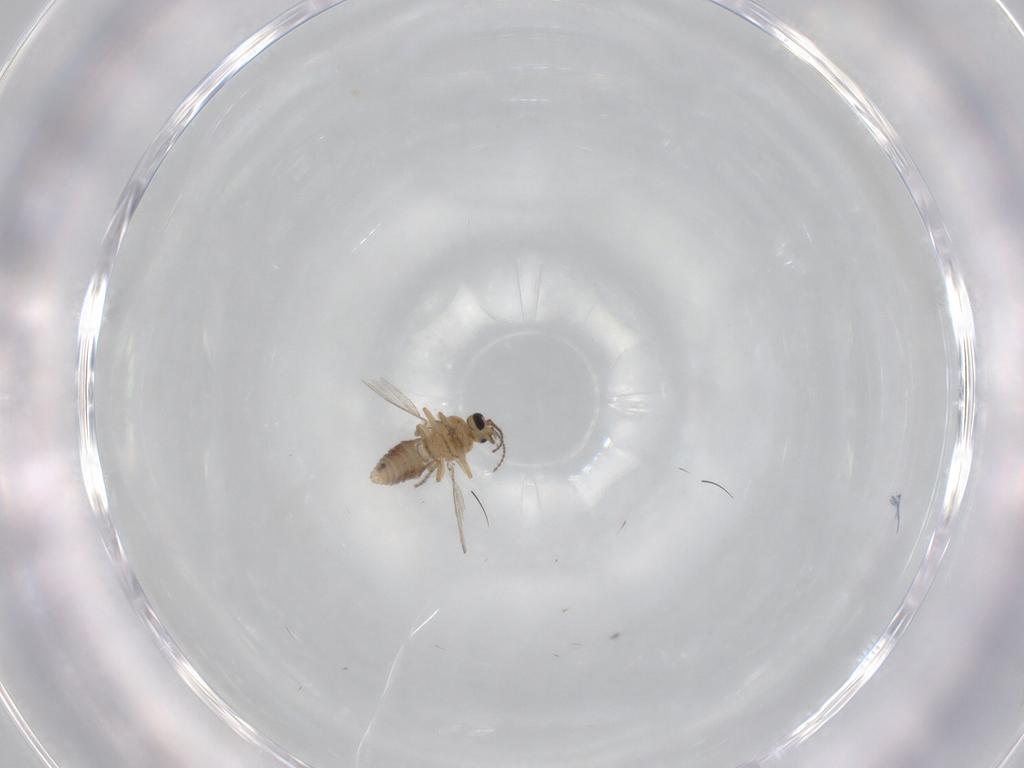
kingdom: Animalia
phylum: Arthropoda
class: Insecta
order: Diptera
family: Ceratopogonidae
